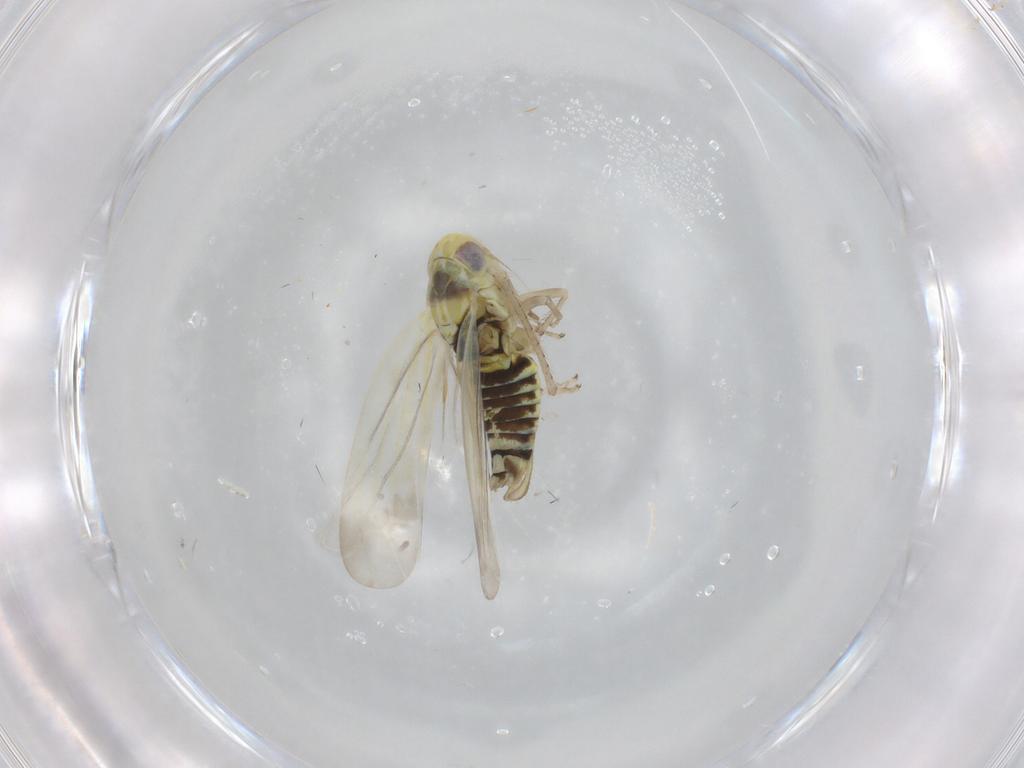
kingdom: Animalia
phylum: Arthropoda
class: Insecta
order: Hemiptera
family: Cicadellidae
